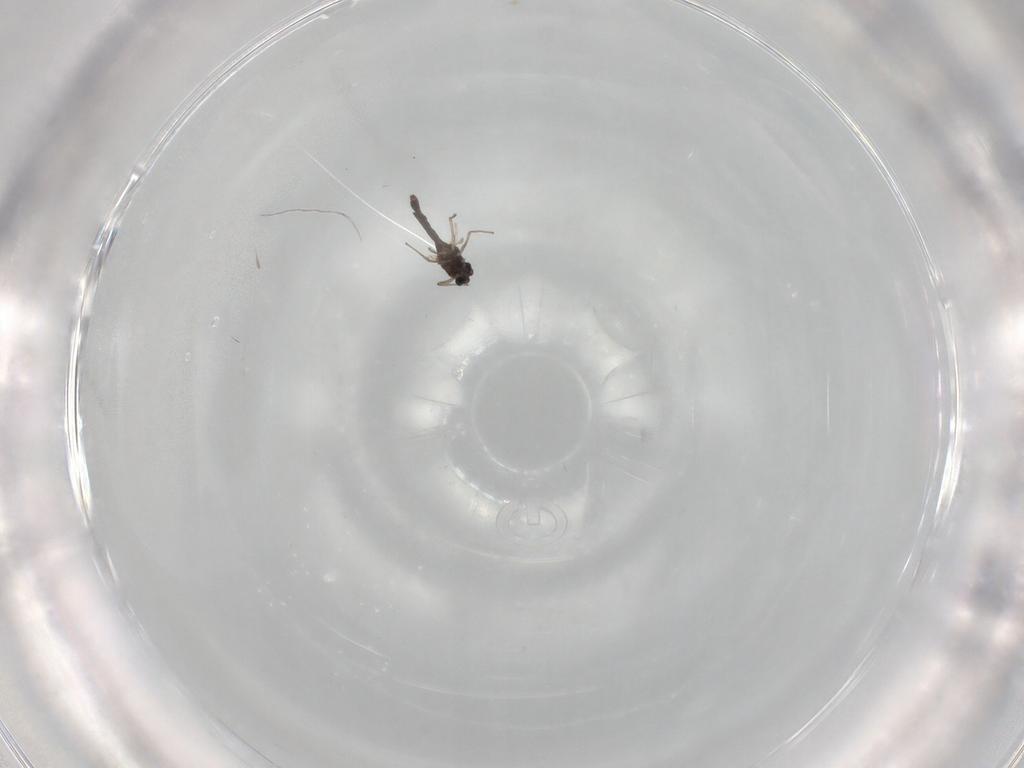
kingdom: Animalia
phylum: Arthropoda
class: Insecta
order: Diptera
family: Chironomidae
